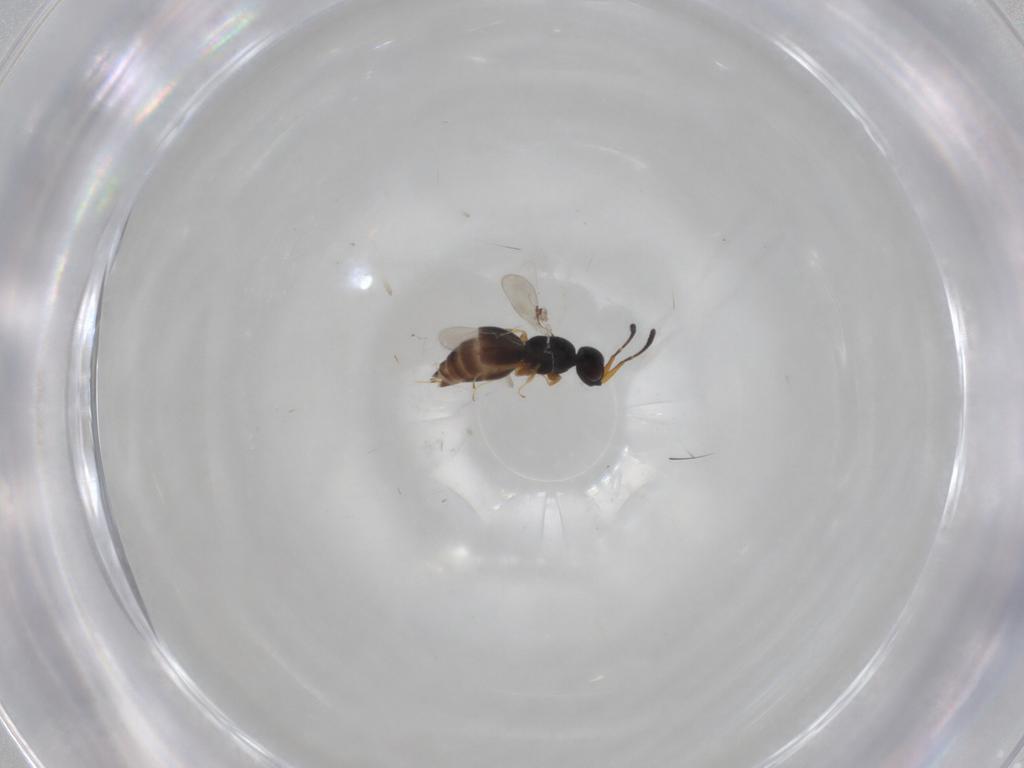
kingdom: Animalia
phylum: Arthropoda
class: Insecta
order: Hymenoptera
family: Ceraphronidae
